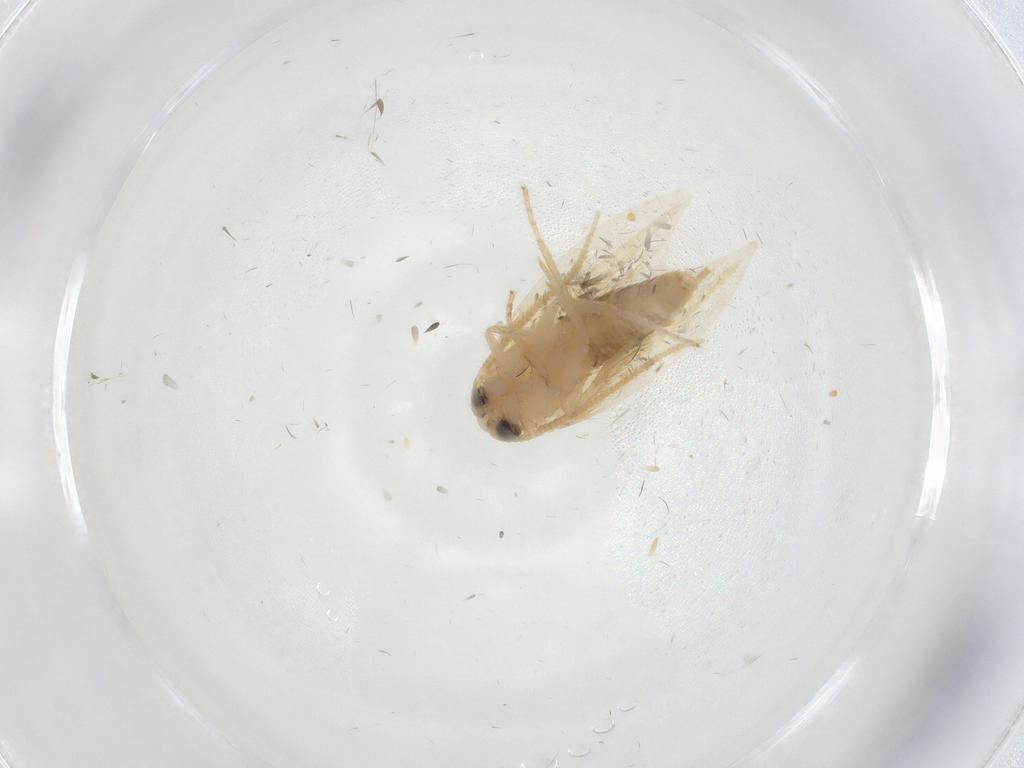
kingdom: Animalia
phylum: Arthropoda
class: Insecta
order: Lepidoptera
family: Opostegidae
